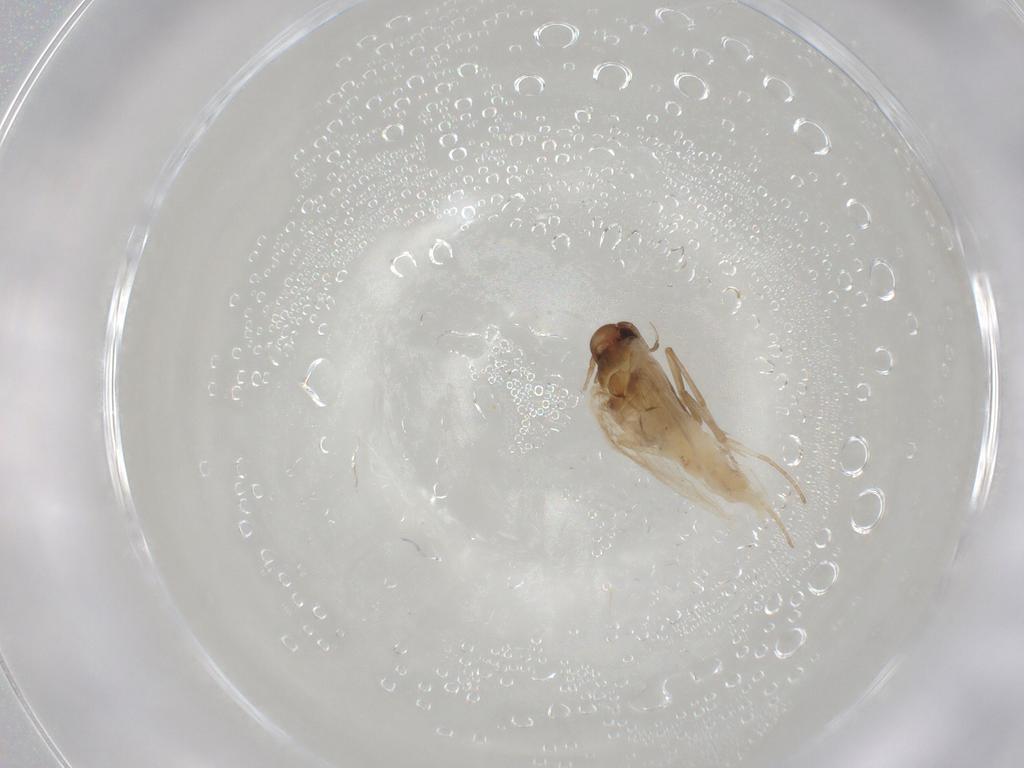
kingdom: Animalia
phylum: Arthropoda
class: Insecta
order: Lepidoptera
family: Gelechiidae
